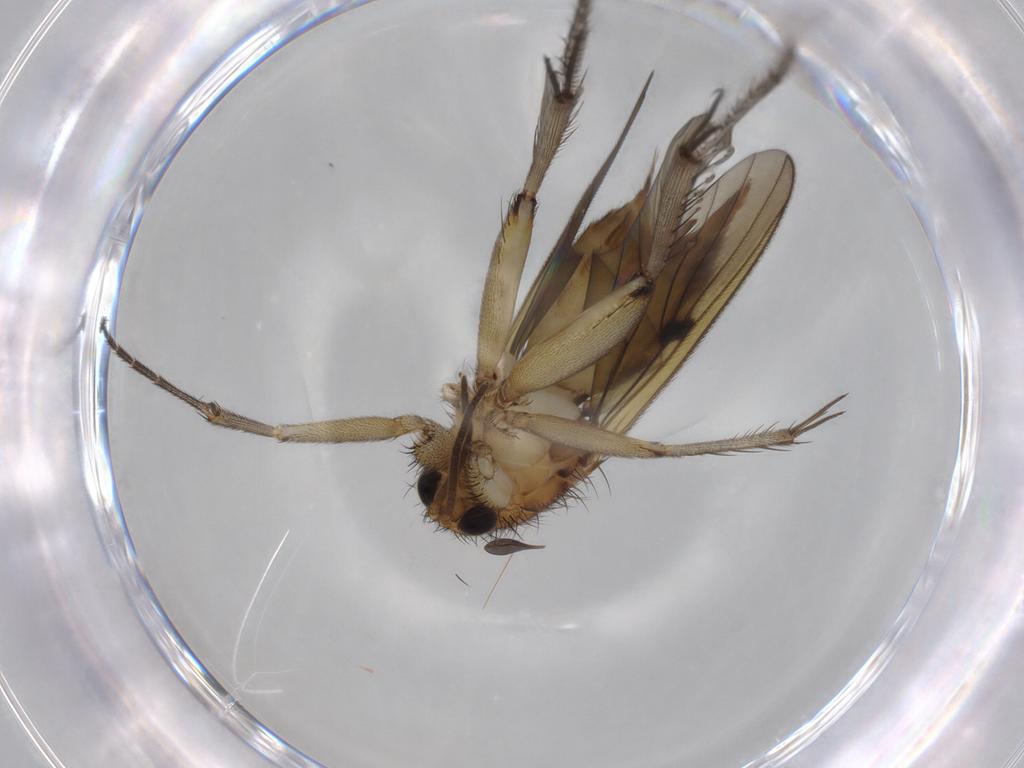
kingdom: Animalia
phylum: Arthropoda
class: Insecta
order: Diptera
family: Mycetophilidae
